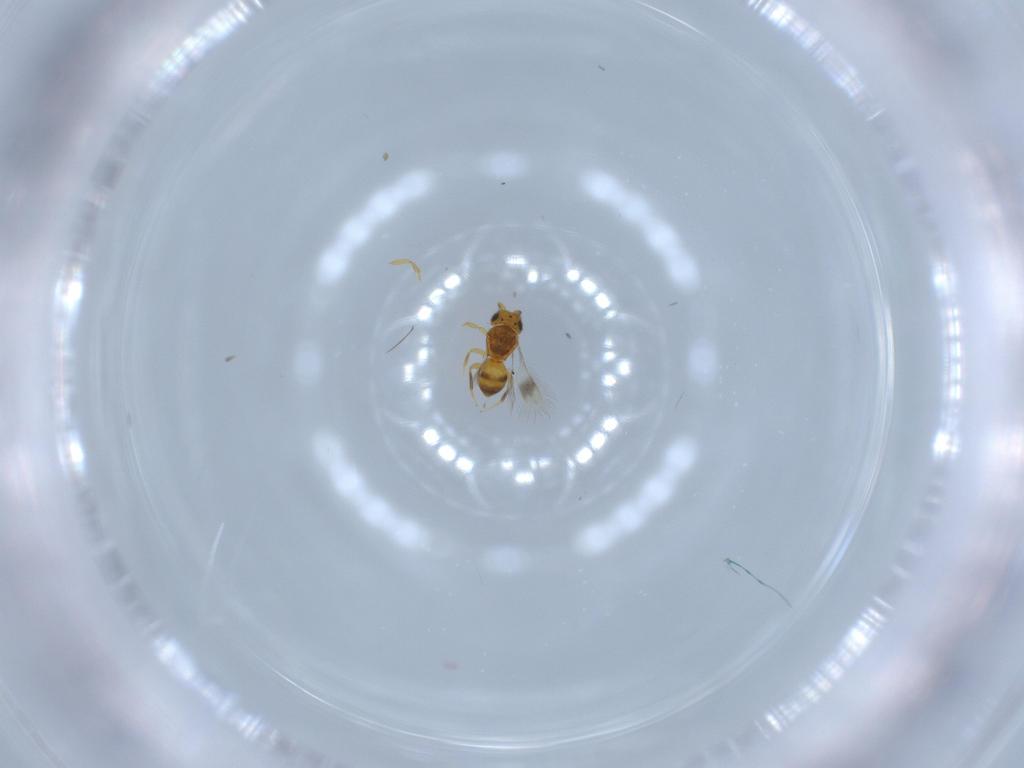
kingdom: Animalia
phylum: Arthropoda
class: Insecta
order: Hymenoptera
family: Scelionidae
